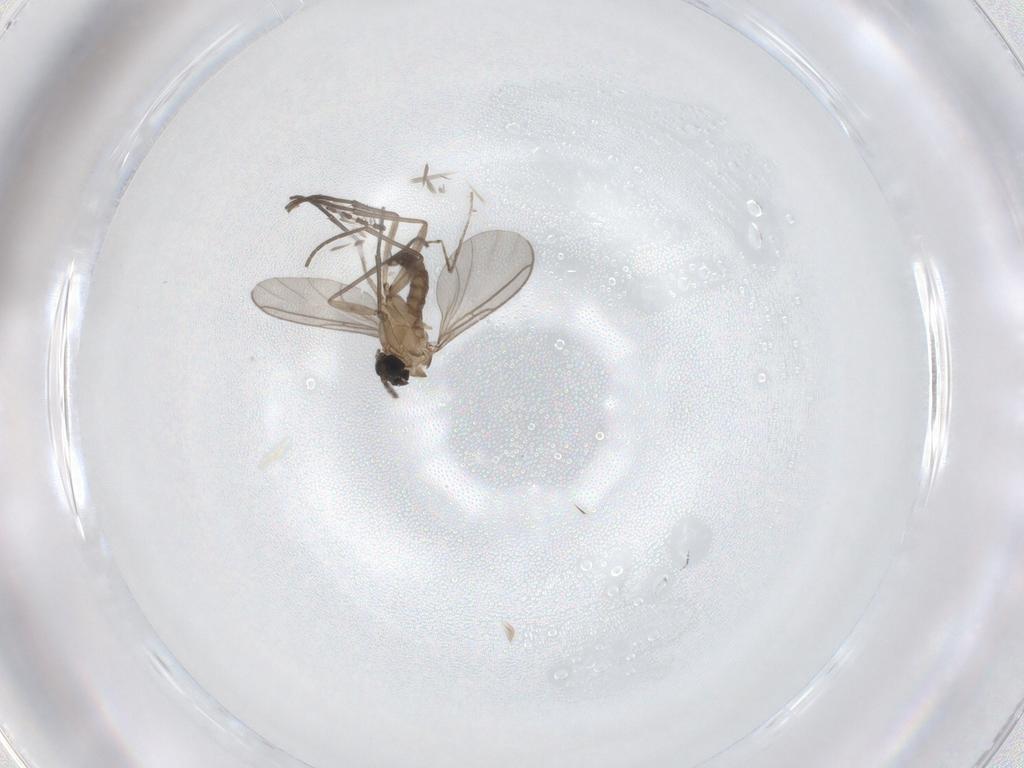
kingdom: Animalia
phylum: Arthropoda
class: Insecta
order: Diptera
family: Sciaridae
